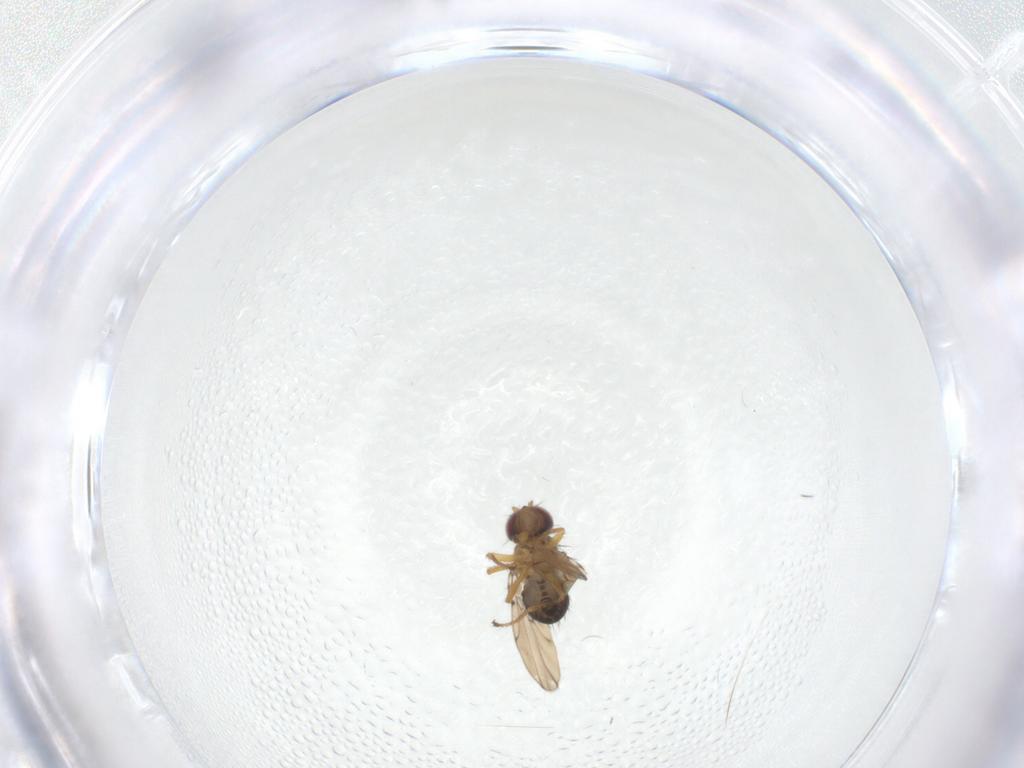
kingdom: Animalia
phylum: Arthropoda
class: Insecta
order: Diptera
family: Ephydridae
